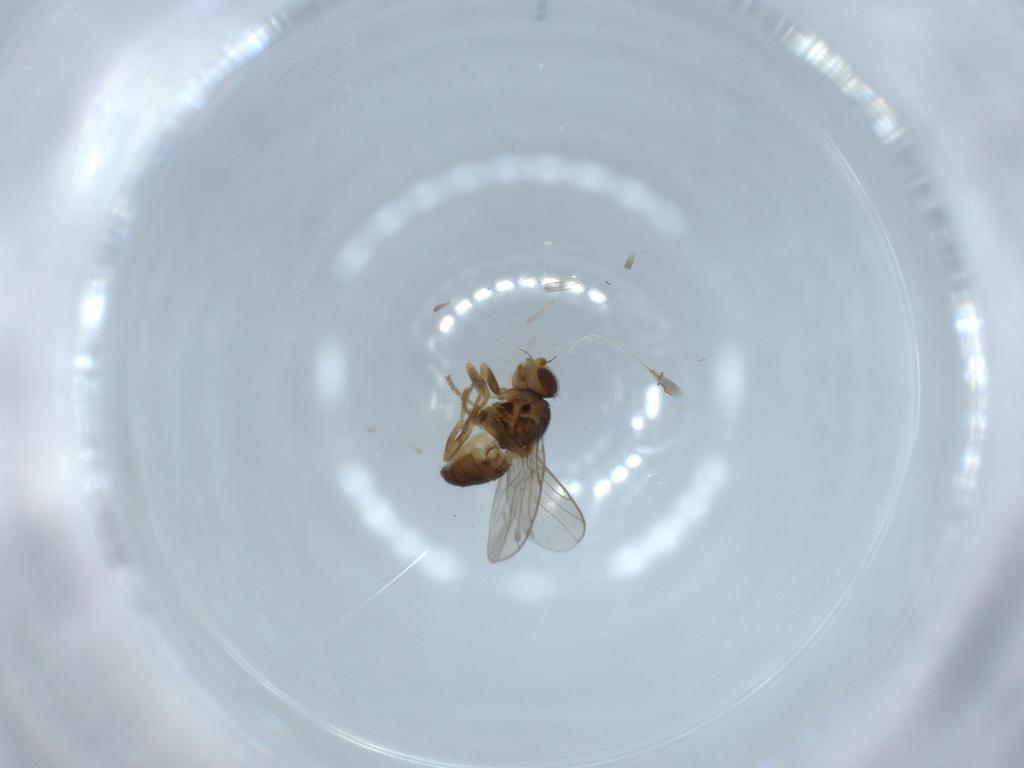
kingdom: Animalia
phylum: Arthropoda
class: Insecta
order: Diptera
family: Chloropidae
